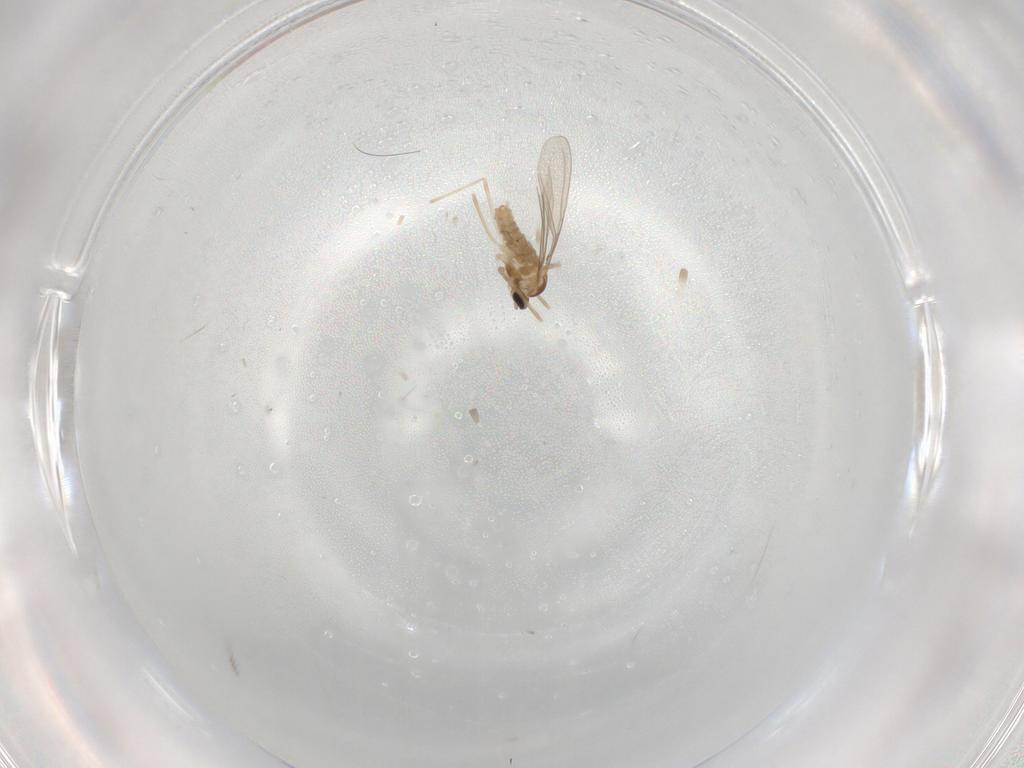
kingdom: Animalia
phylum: Arthropoda
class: Insecta
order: Diptera
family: Cecidomyiidae
